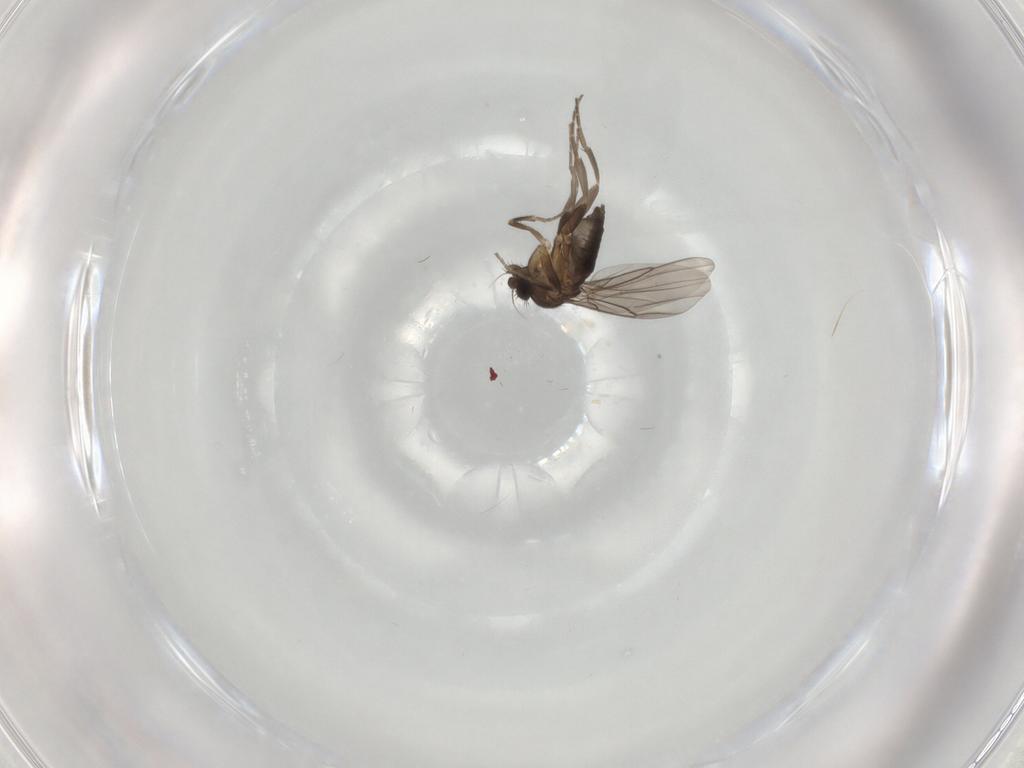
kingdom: Animalia
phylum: Arthropoda
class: Insecta
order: Diptera
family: Phoridae
